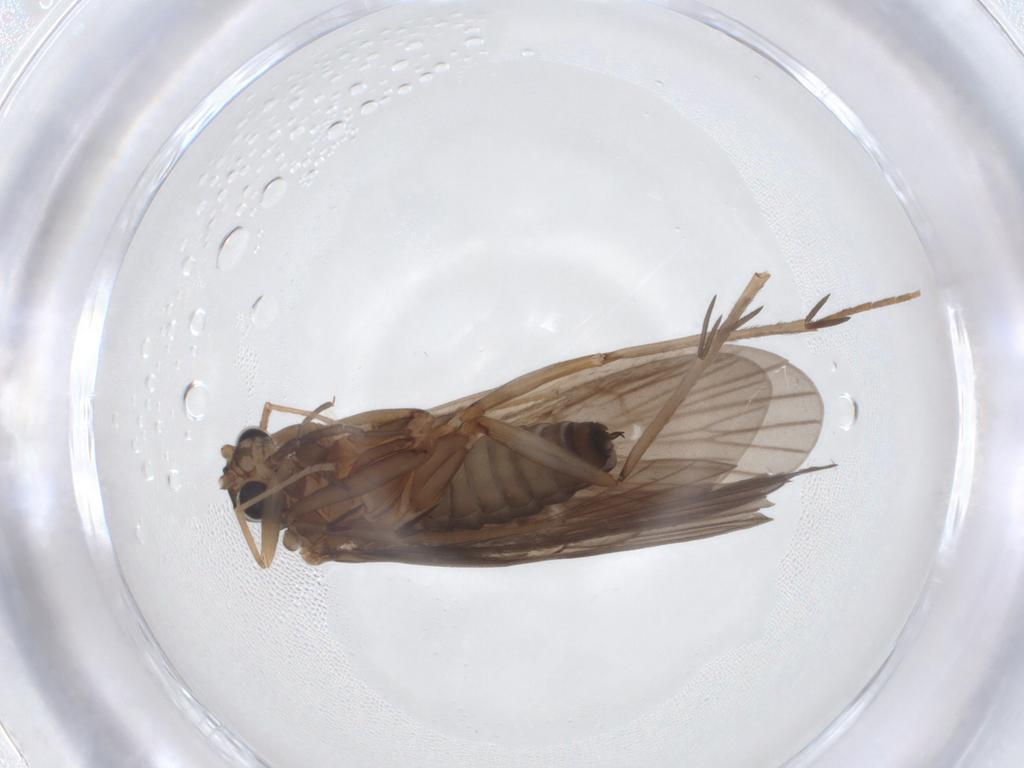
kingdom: Animalia
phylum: Arthropoda
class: Insecta
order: Trichoptera
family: Philopotamidae
